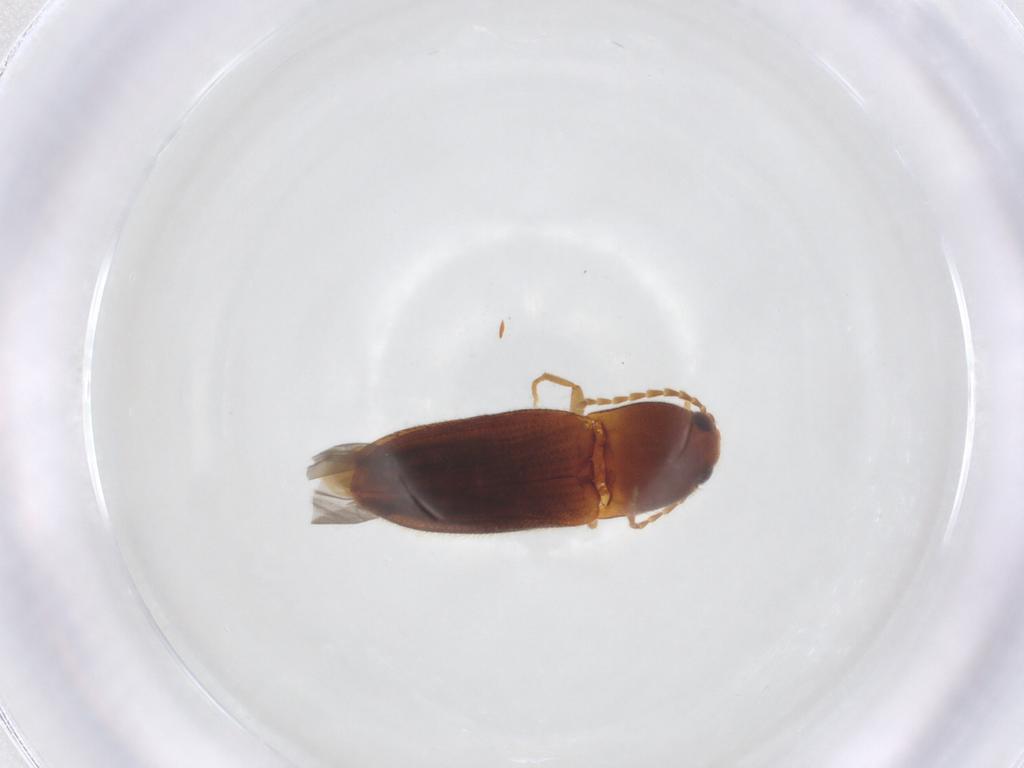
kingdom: Animalia
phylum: Arthropoda
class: Insecta
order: Coleoptera
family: Elateridae
